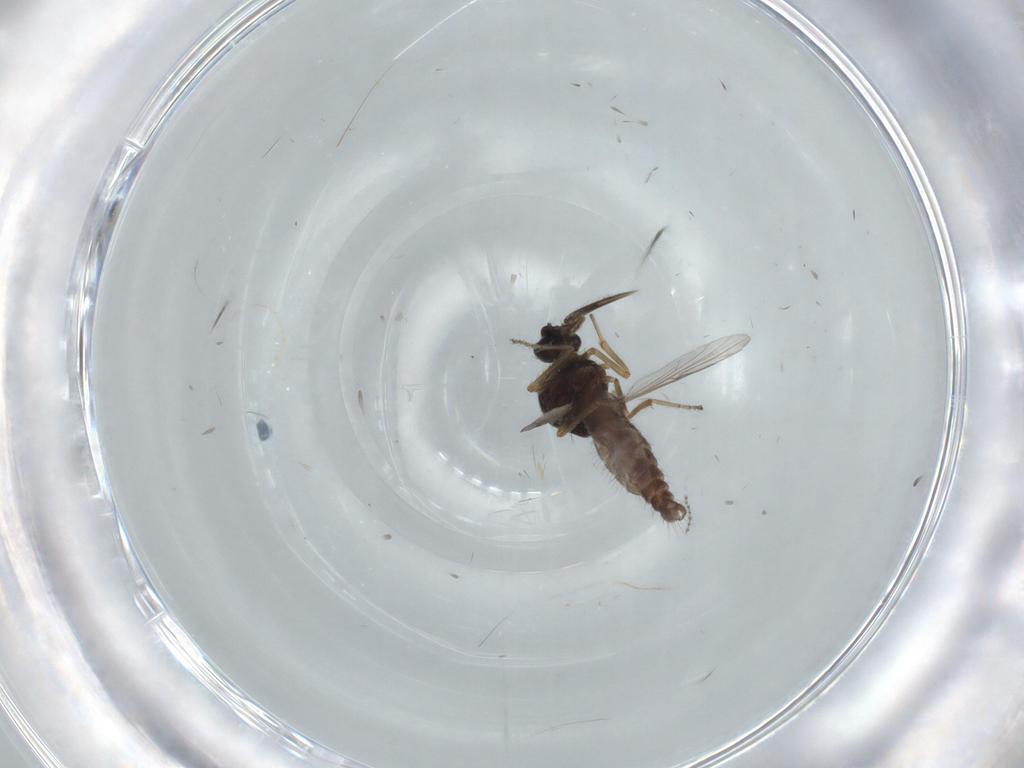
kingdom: Animalia
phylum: Arthropoda
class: Insecta
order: Diptera
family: Ceratopogonidae
